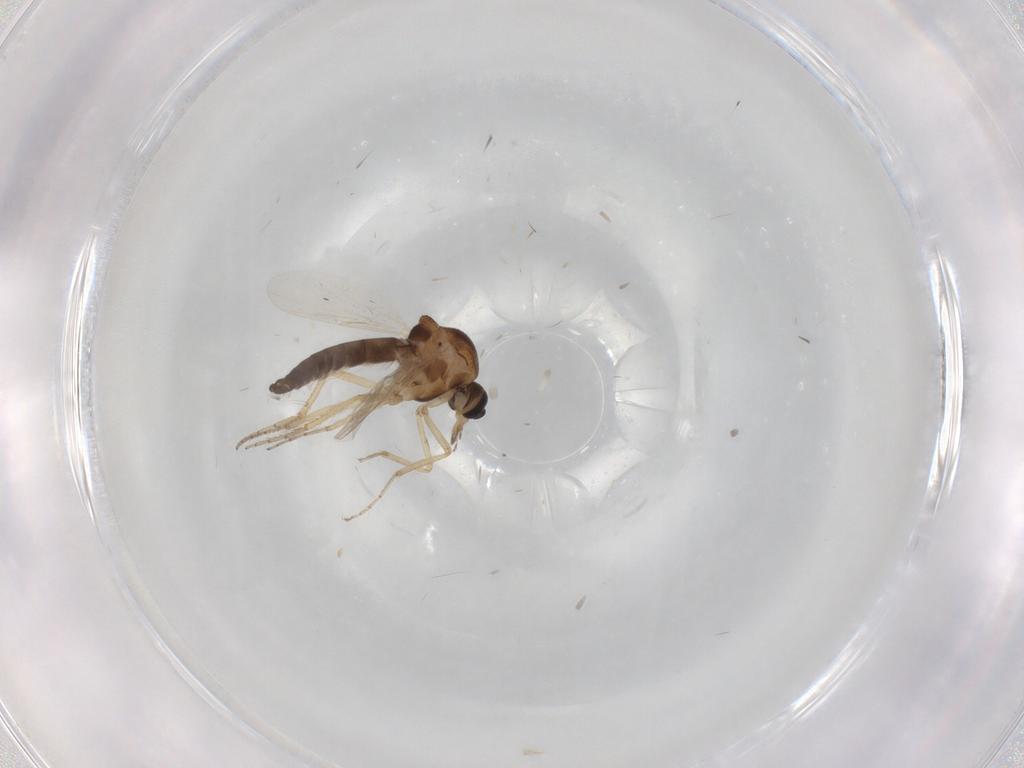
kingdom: Animalia
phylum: Arthropoda
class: Insecta
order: Diptera
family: Ceratopogonidae
